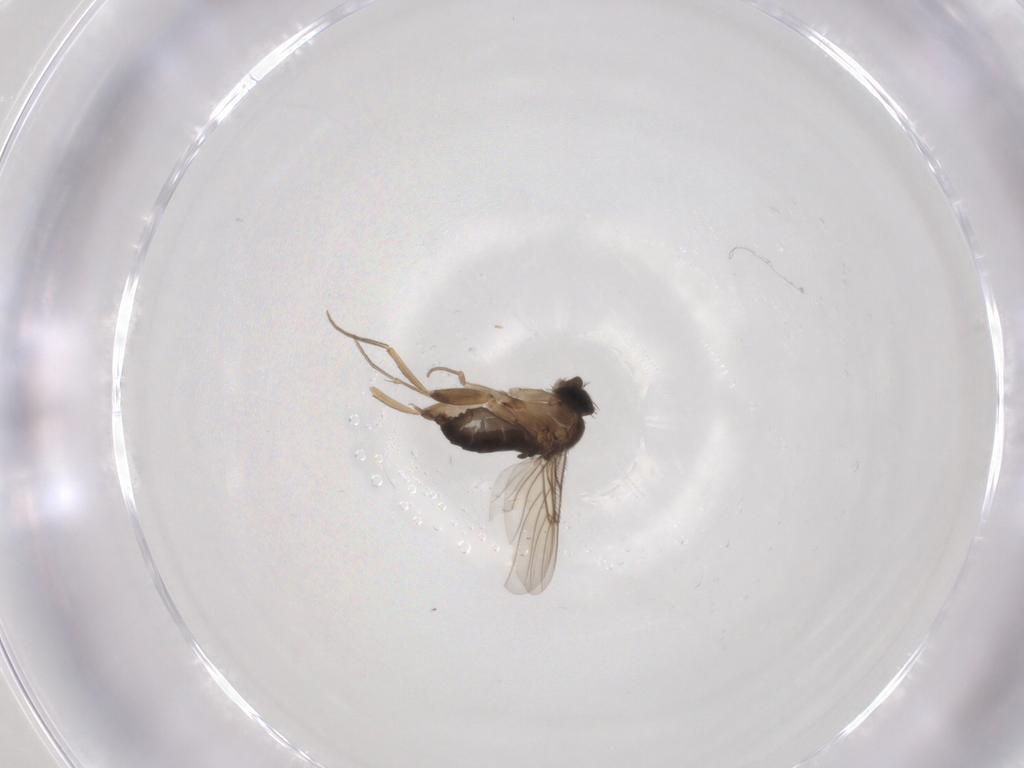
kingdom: Animalia
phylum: Arthropoda
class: Insecta
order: Diptera
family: Phoridae
